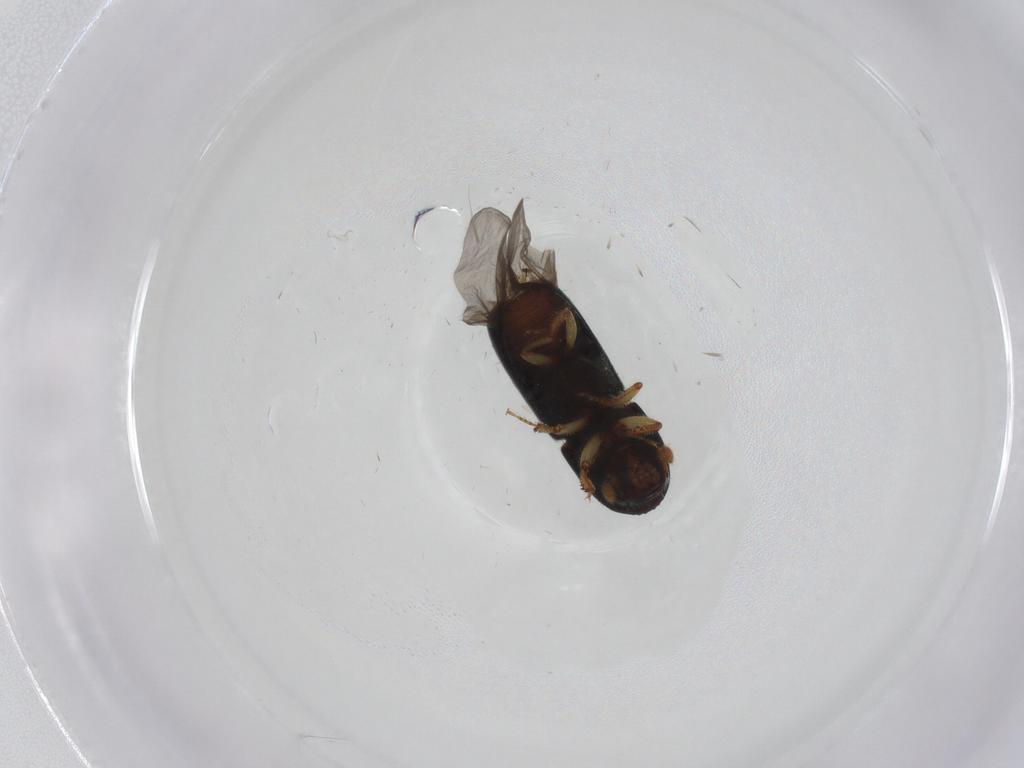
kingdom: Animalia
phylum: Arthropoda
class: Insecta
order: Coleoptera
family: Curculionidae
